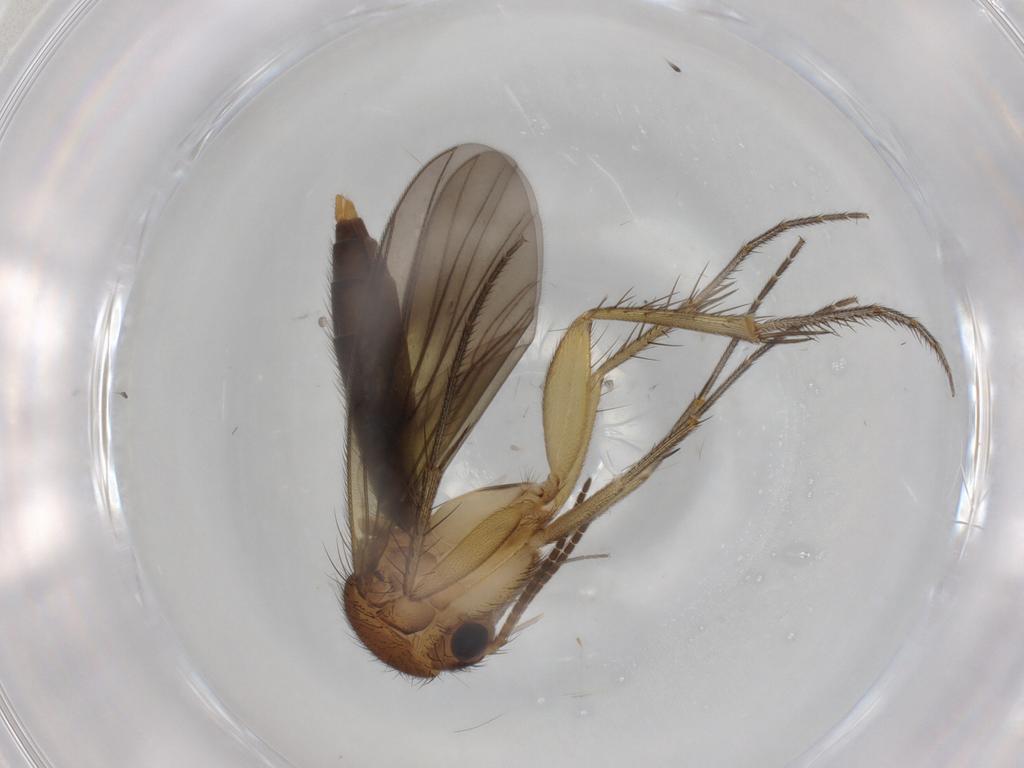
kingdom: Animalia
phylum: Arthropoda
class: Insecta
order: Diptera
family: Mycetophilidae
